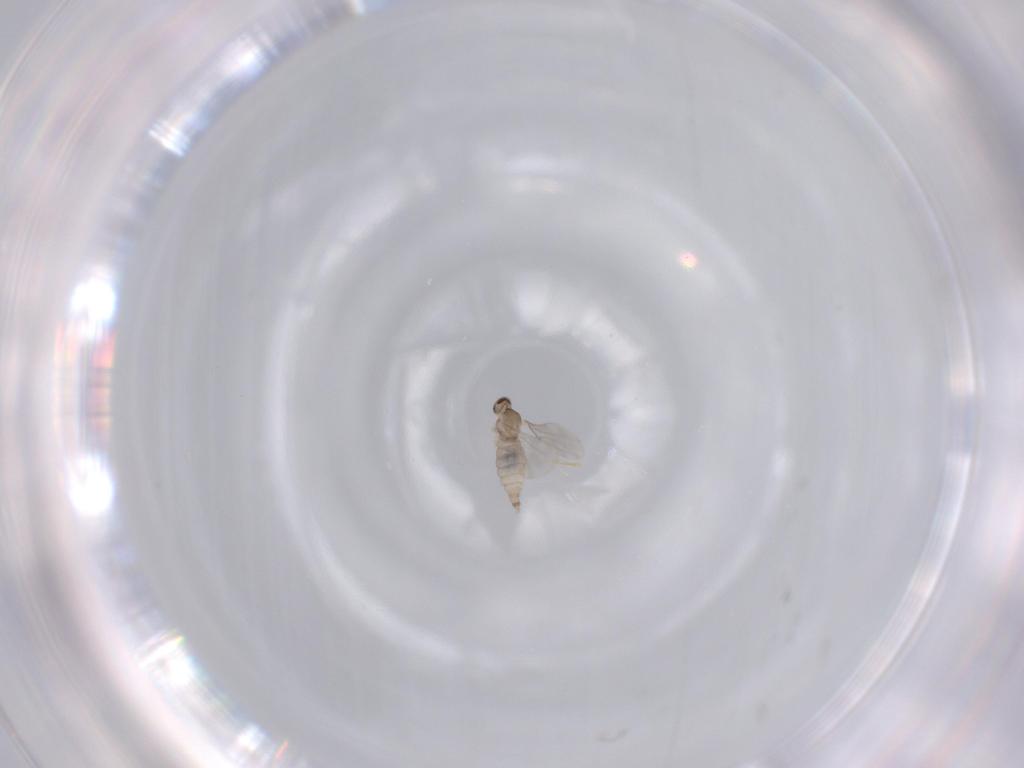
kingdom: Animalia
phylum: Arthropoda
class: Insecta
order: Diptera
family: Cecidomyiidae
